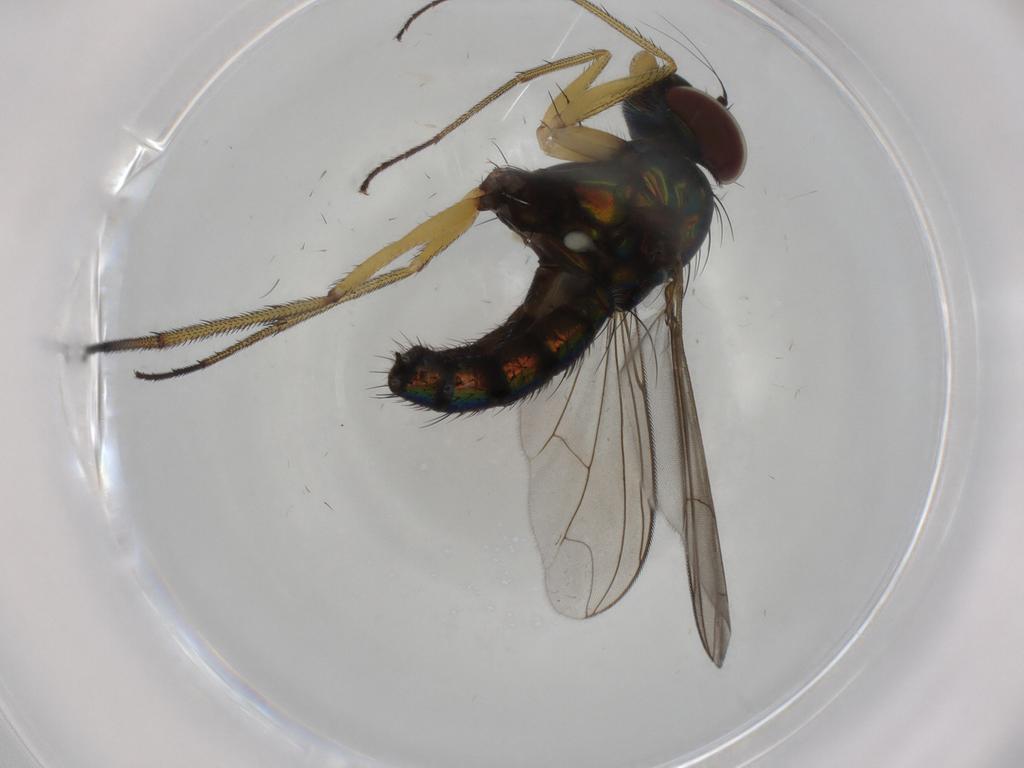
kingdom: Animalia
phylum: Arthropoda
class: Insecta
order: Diptera
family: Dolichopodidae
